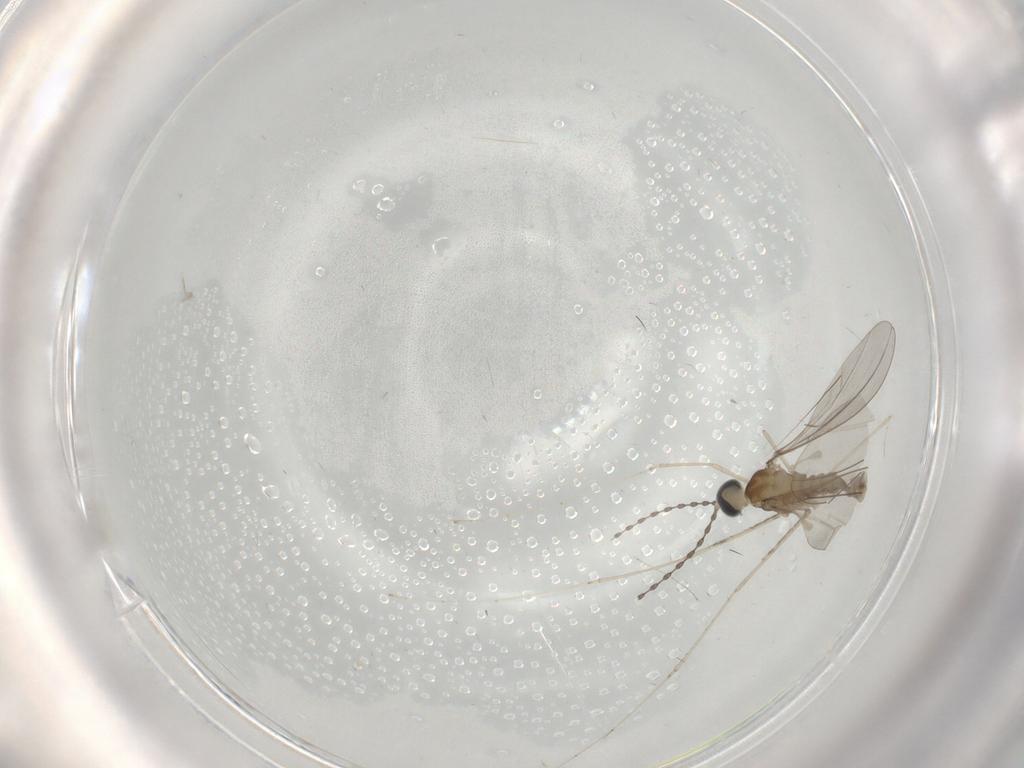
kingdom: Animalia
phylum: Arthropoda
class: Insecta
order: Diptera
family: Cecidomyiidae
